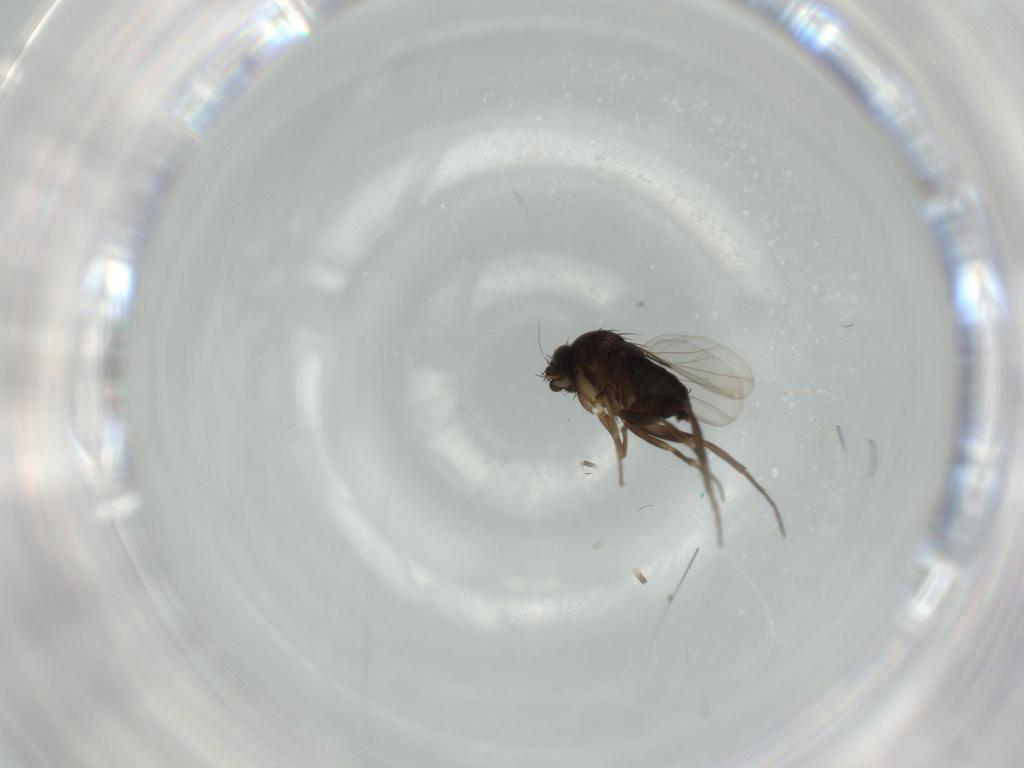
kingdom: Animalia
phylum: Arthropoda
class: Insecta
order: Diptera
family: Phoridae
